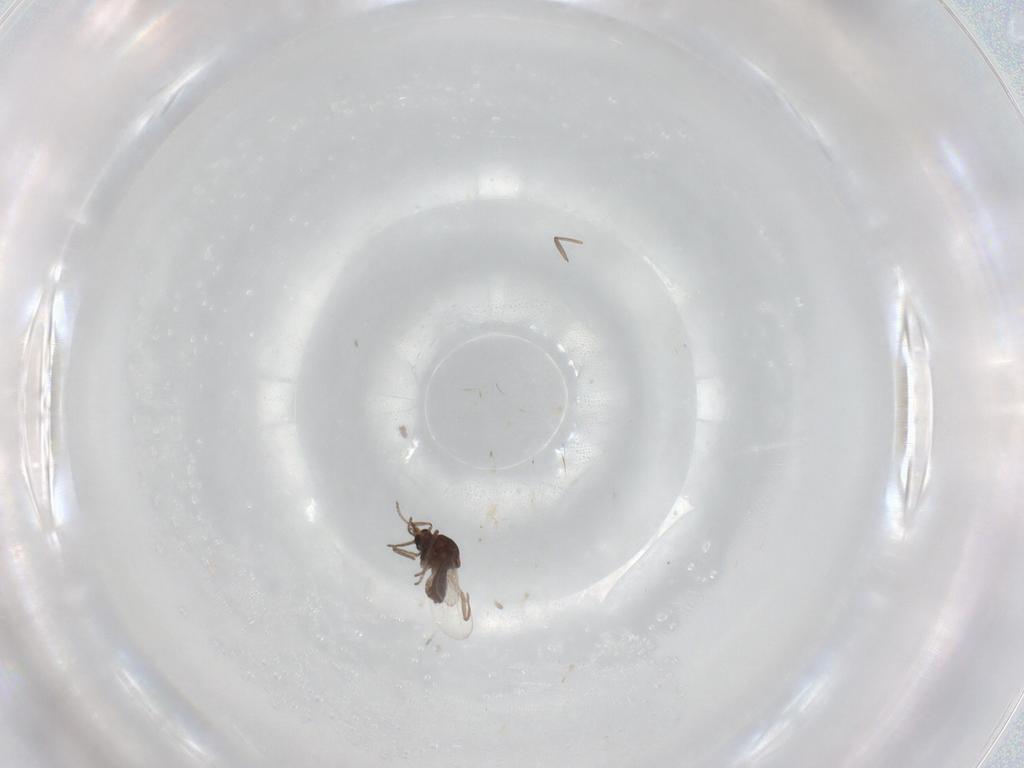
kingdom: Animalia
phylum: Arthropoda
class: Insecta
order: Diptera
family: Ceratopogonidae
